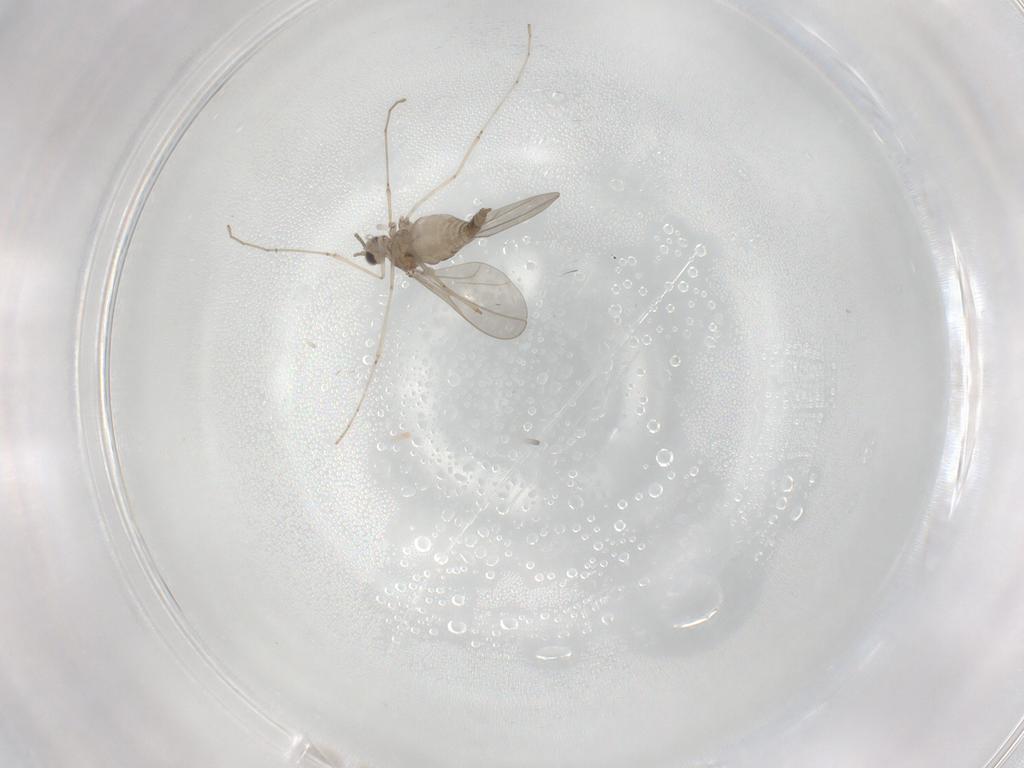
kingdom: Animalia
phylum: Arthropoda
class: Insecta
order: Diptera
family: Cecidomyiidae
